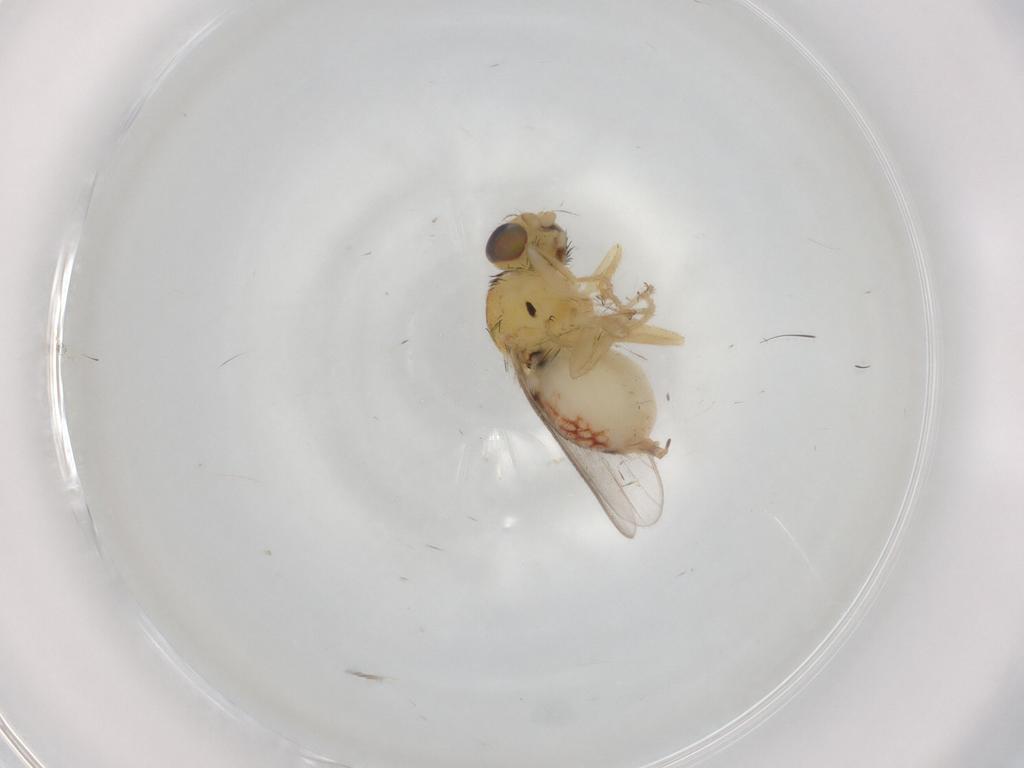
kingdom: Animalia
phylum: Arthropoda
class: Insecta
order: Diptera
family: Chloropidae
